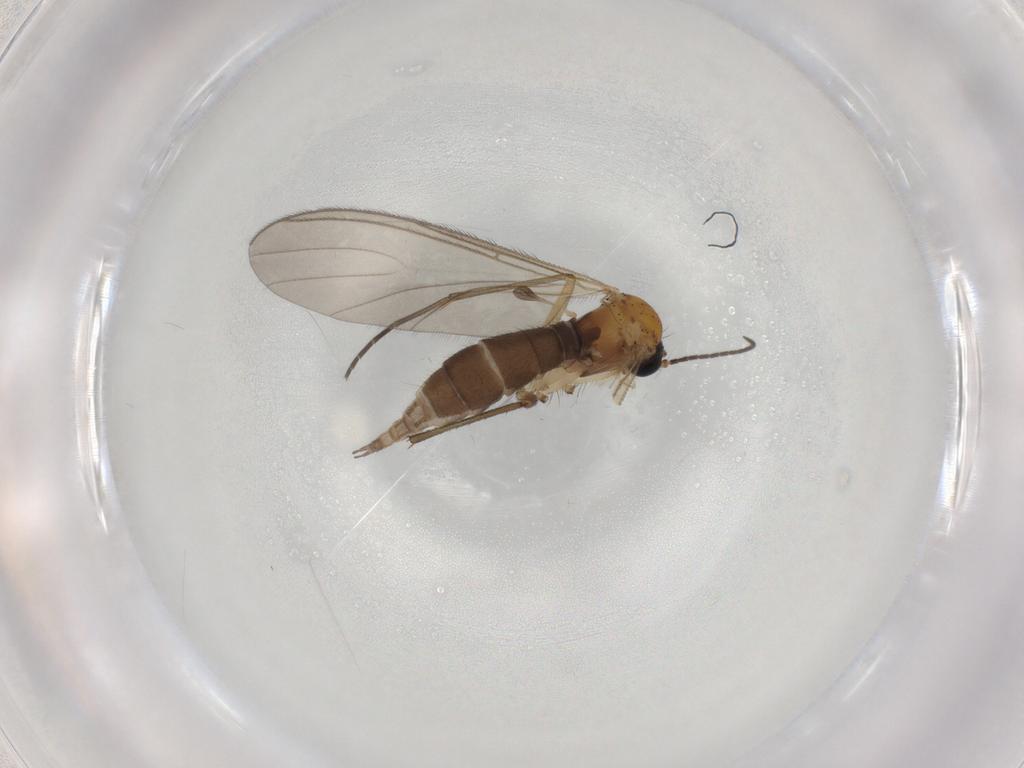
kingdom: Animalia
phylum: Arthropoda
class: Insecta
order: Diptera
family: Sciaridae
